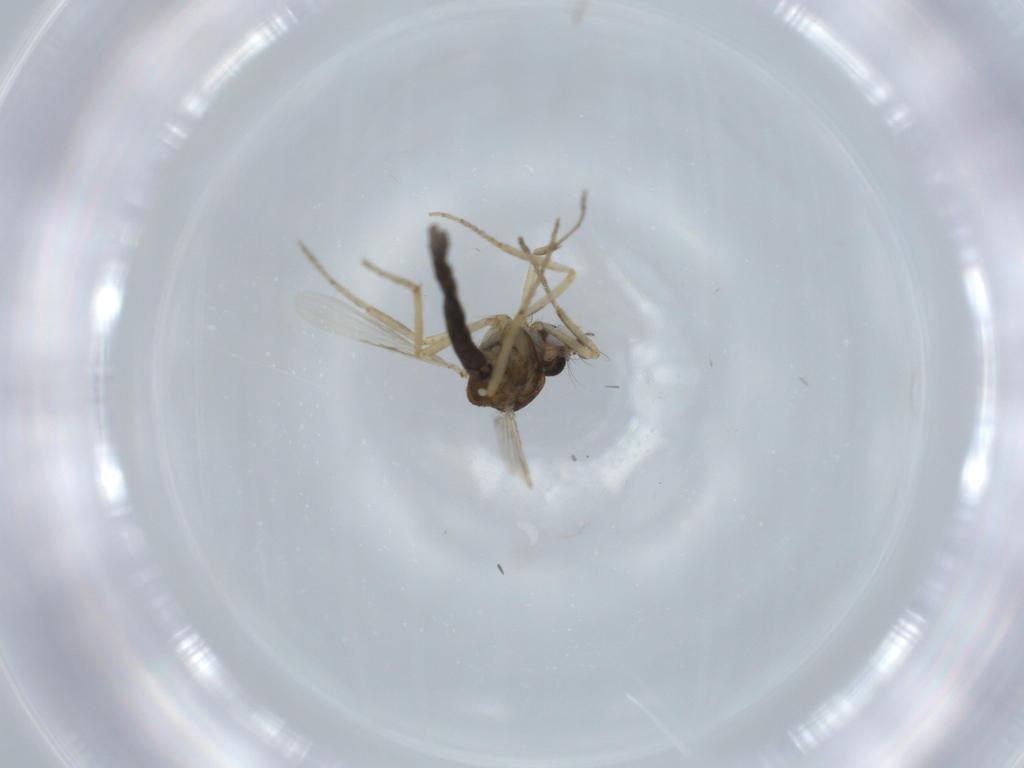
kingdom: Animalia
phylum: Arthropoda
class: Insecta
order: Diptera
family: Ceratopogonidae
